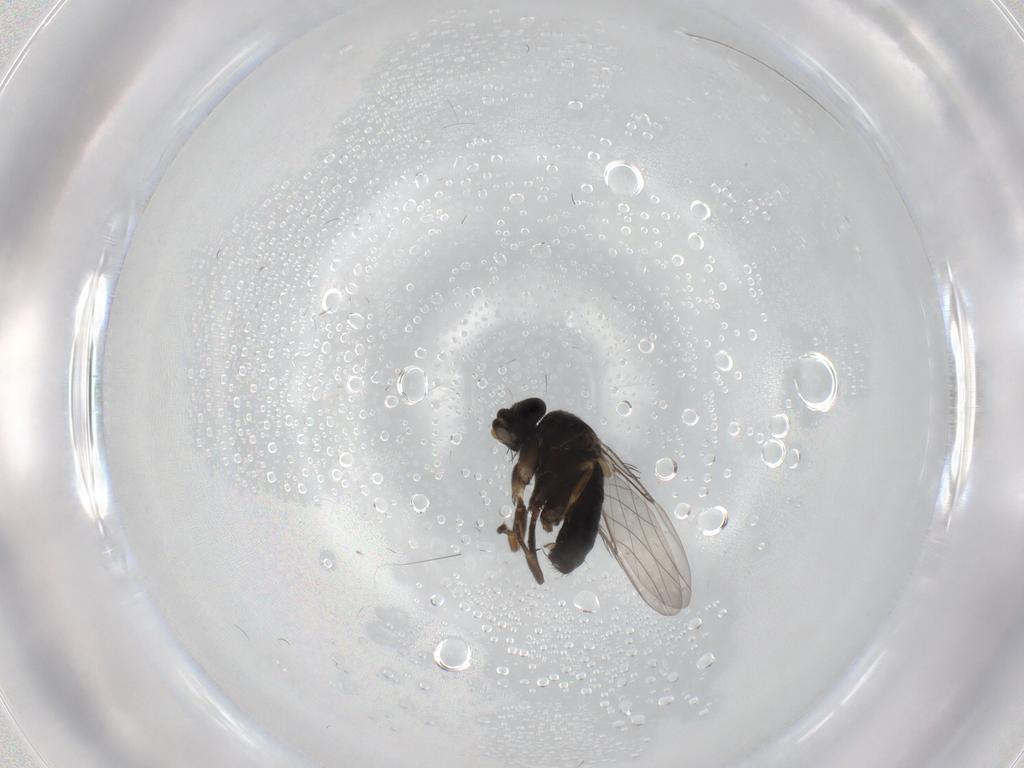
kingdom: Animalia
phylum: Arthropoda
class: Insecta
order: Diptera
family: Phoridae
